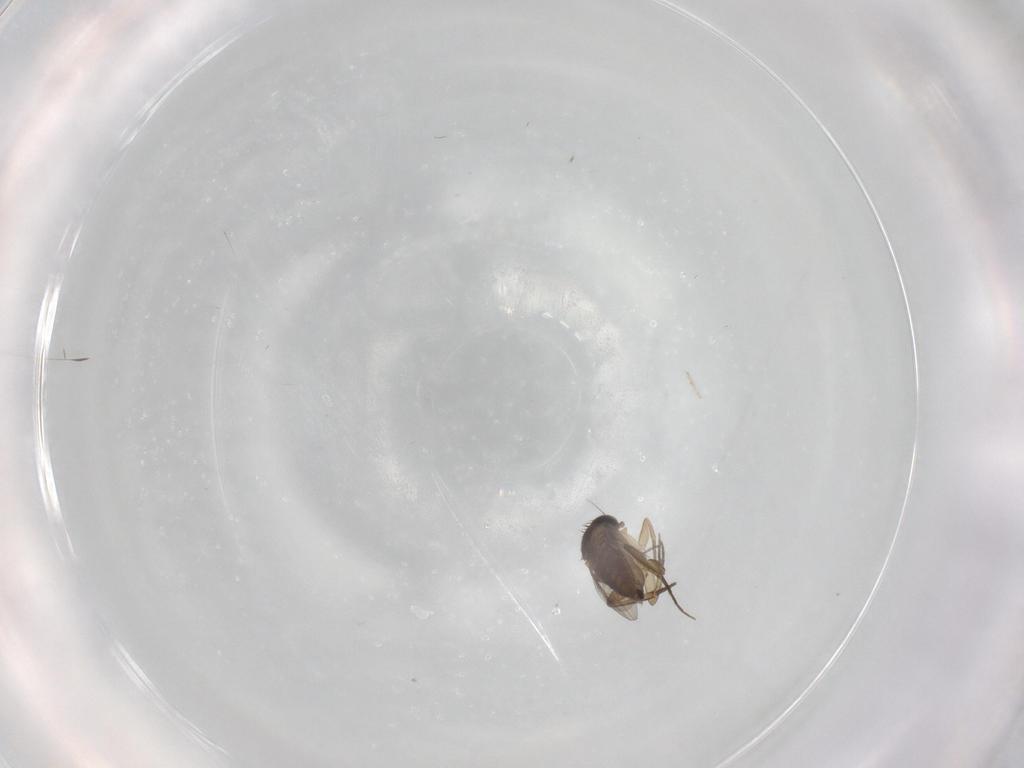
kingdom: Animalia
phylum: Arthropoda
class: Insecta
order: Diptera
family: Phoridae
